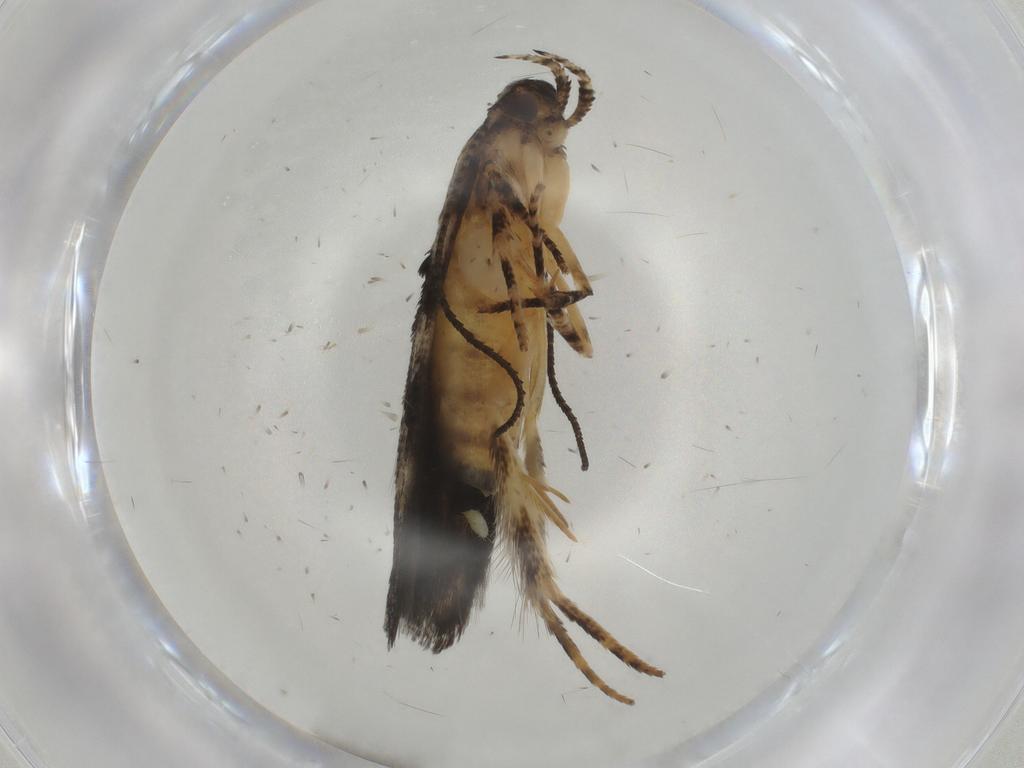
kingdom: Animalia
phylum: Arthropoda
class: Insecta
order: Lepidoptera
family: Elachistidae
